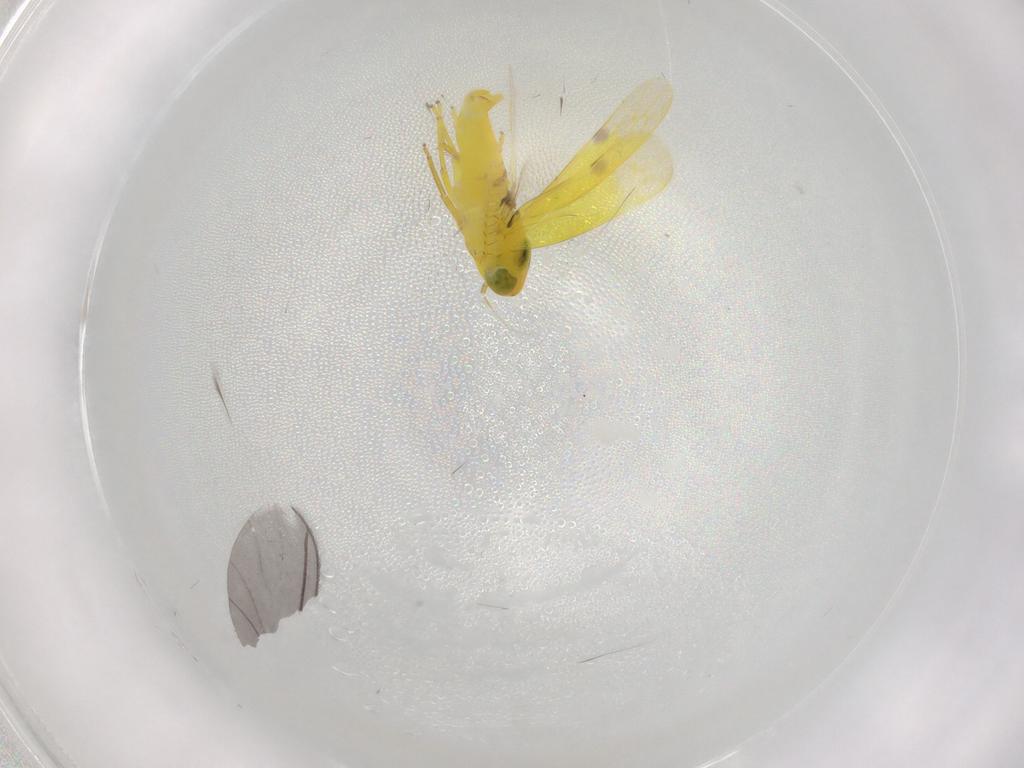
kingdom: Animalia
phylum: Arthropoda
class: Insecta
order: Hemiptera
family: Cicadellidae
